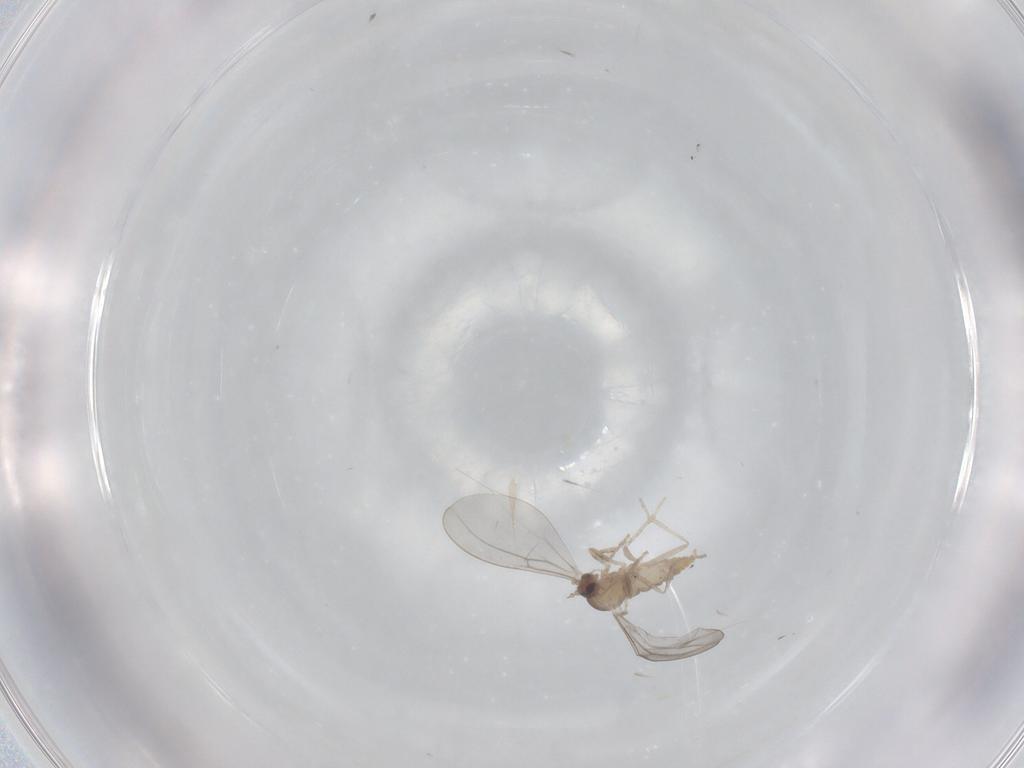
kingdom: Animalia
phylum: Arthropoda
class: Insecta
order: Diptera
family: Cecidomyiidae
